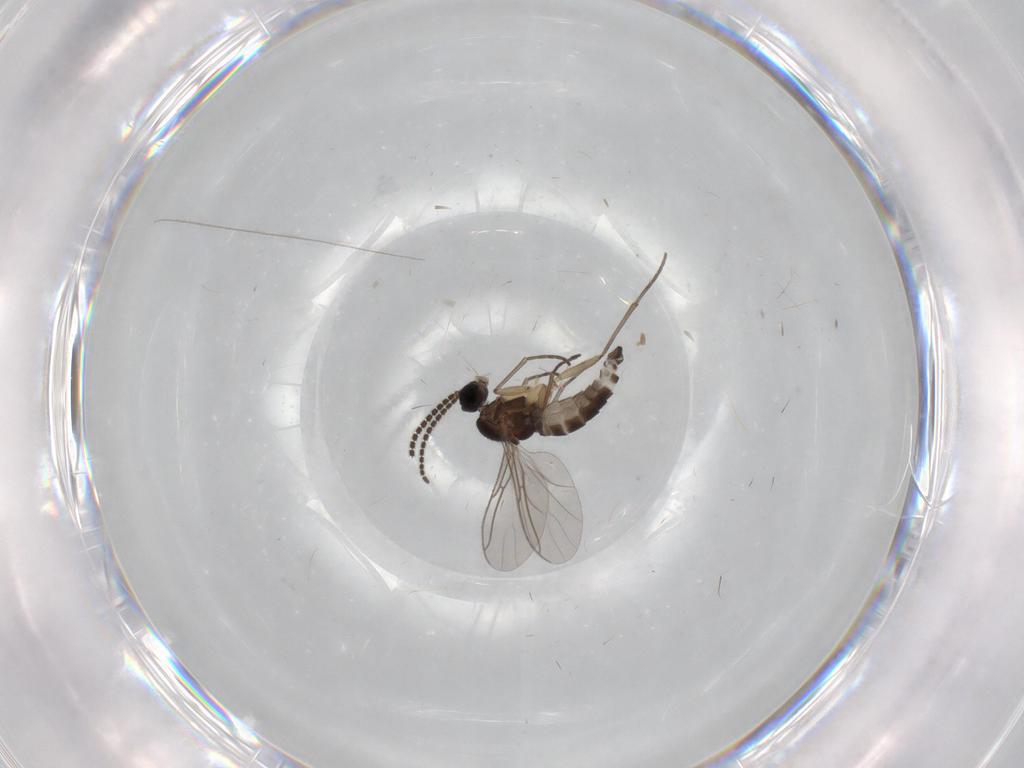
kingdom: Animalia
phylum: Arthropoda
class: Insecta
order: Diptera
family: Sciaridae
